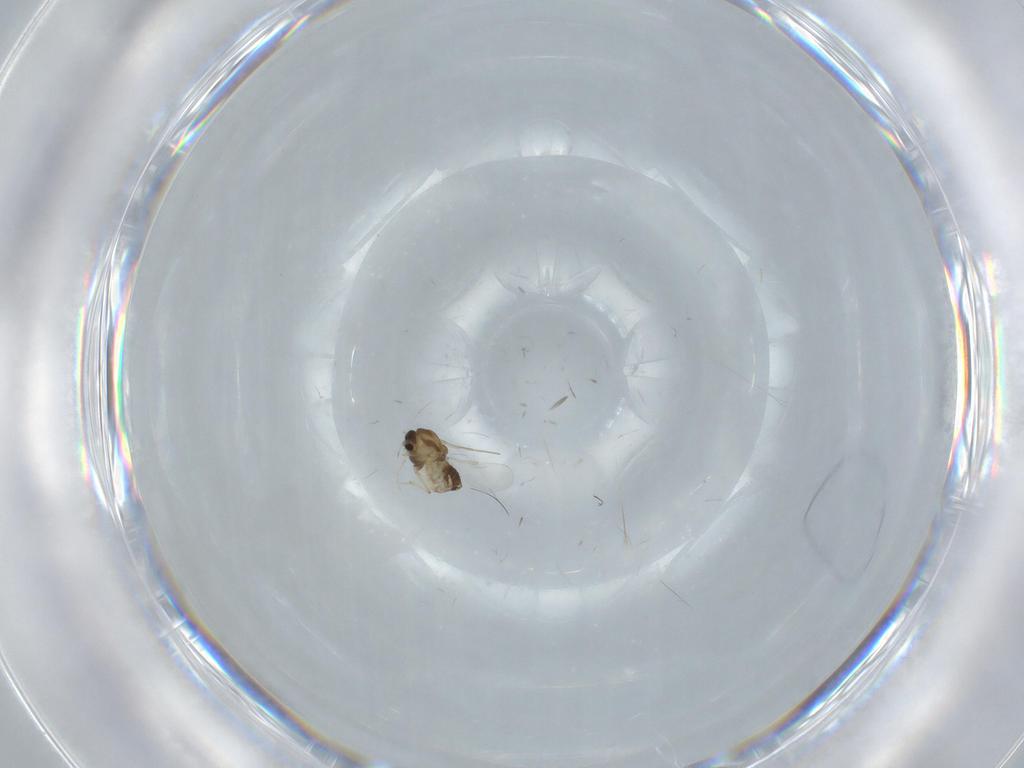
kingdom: Animalia
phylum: Arthropoda
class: Insecta
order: Diptera
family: Chironomidae
